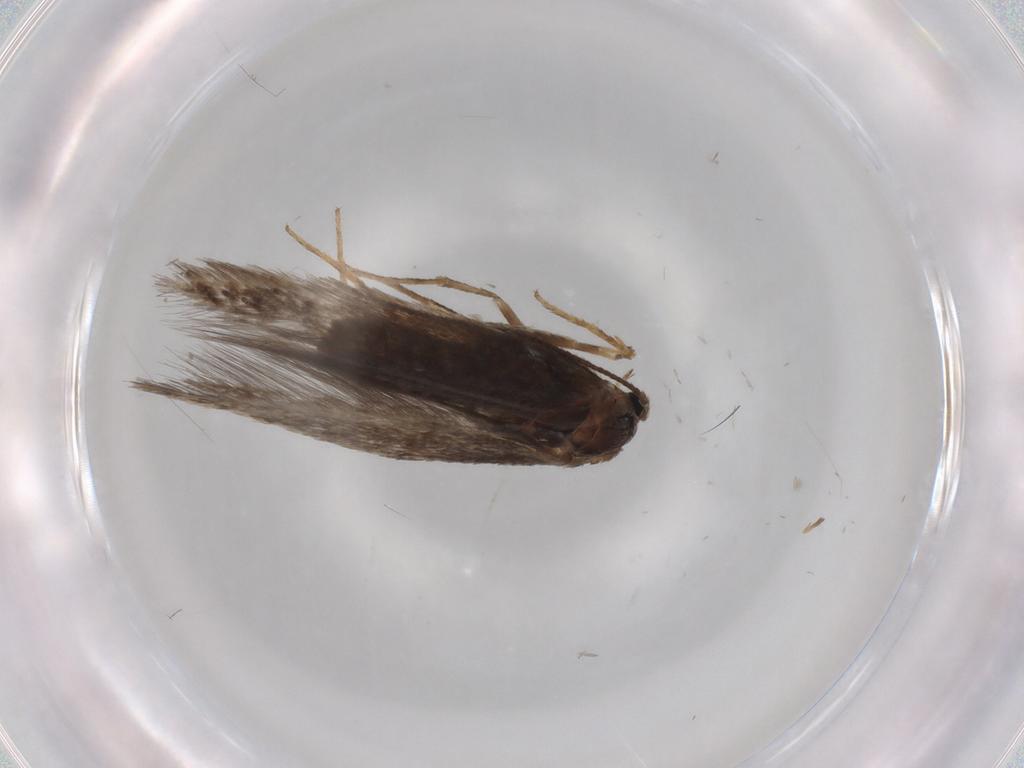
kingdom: Animalia
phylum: Arthropoda
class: Insecta
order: Lepidoptera
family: Nepticulidae
